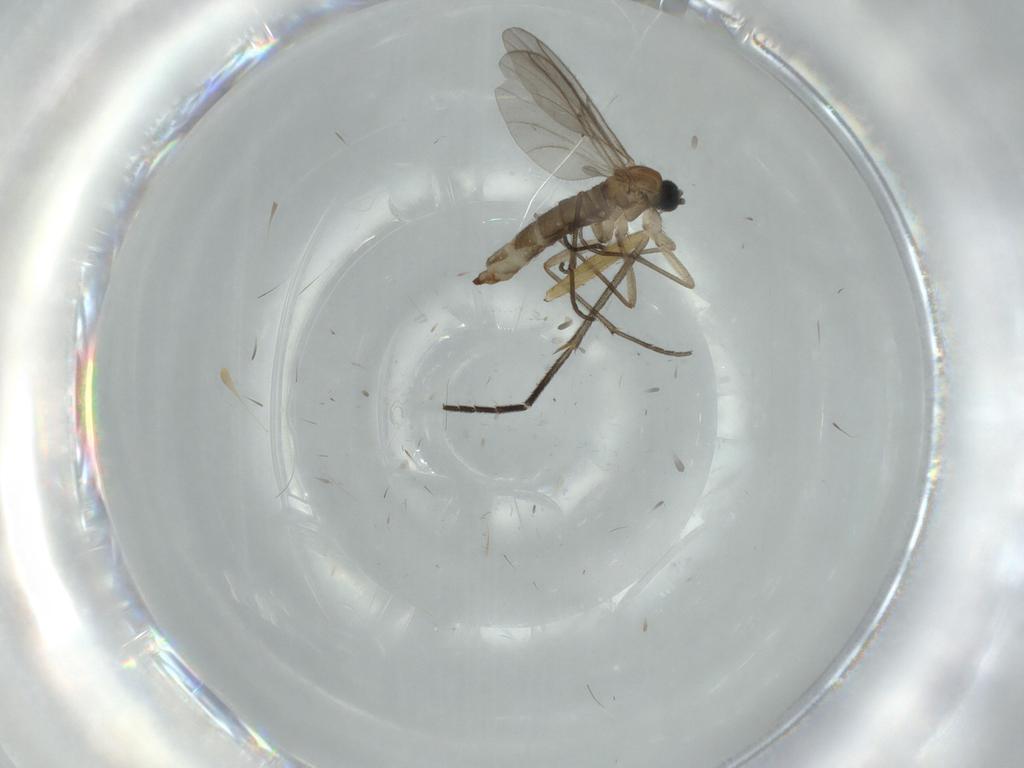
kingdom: Animalia
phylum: Arthropoda
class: Insecta
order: Diptera
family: Sciaridae
